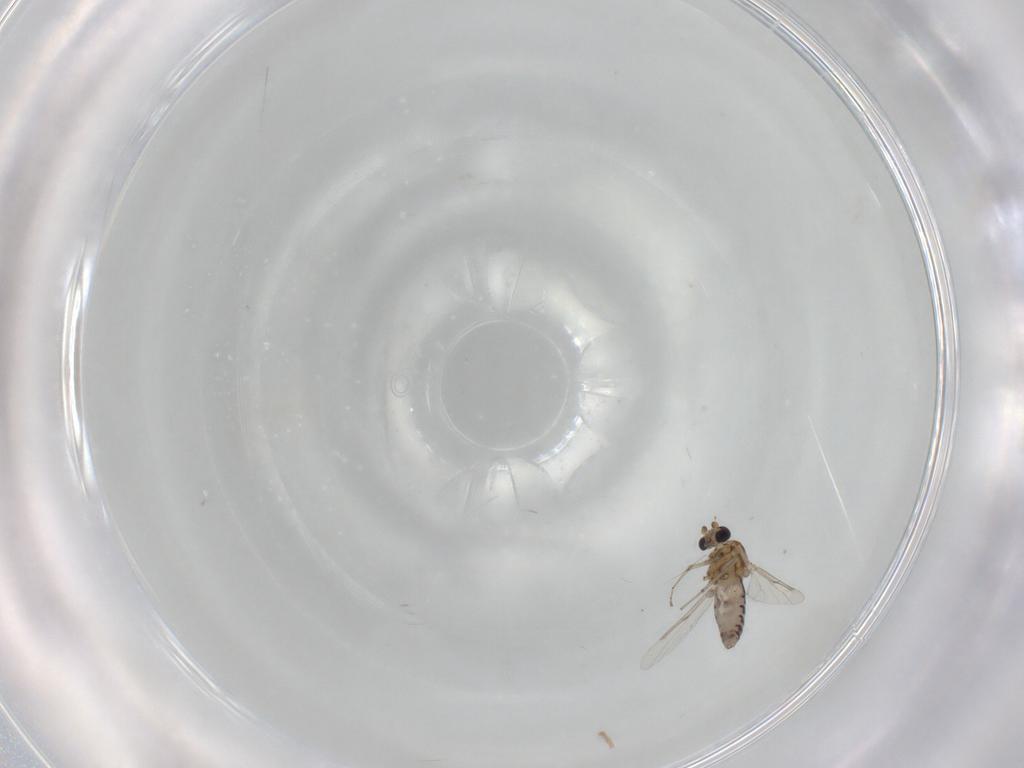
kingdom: Animalia
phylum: Arthropoda
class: Insecta
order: Diptera
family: Ceratopogonidae
